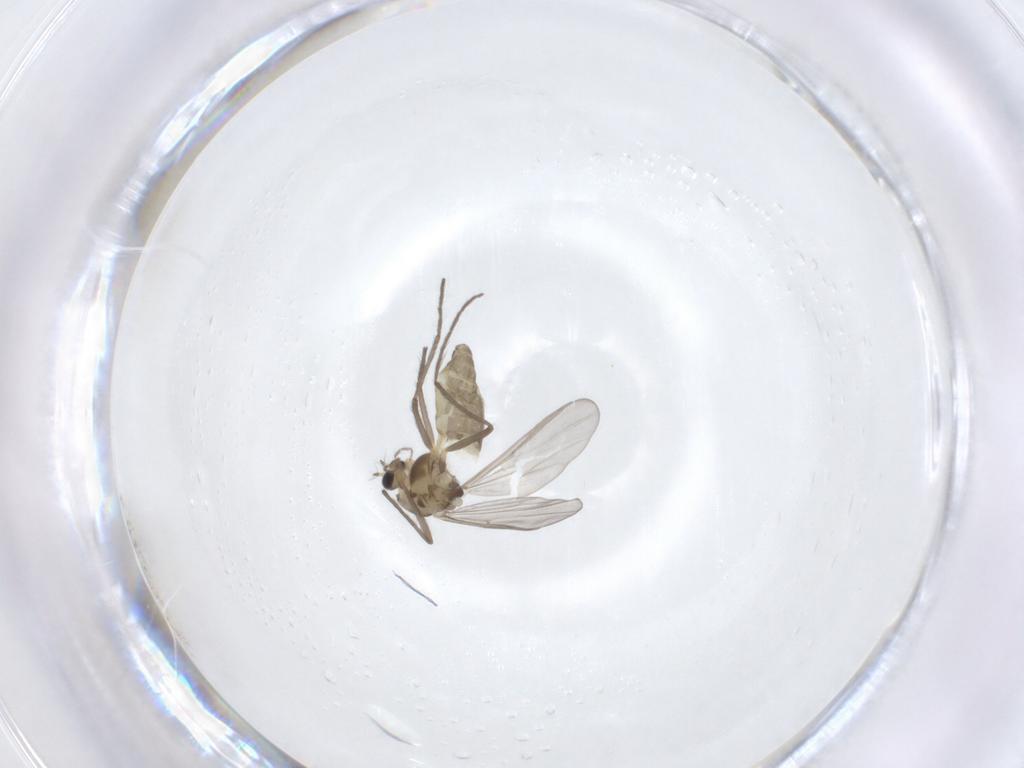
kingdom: Animalia
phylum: Arthropoda
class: Insecta
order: Diptera
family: Chironomidae
